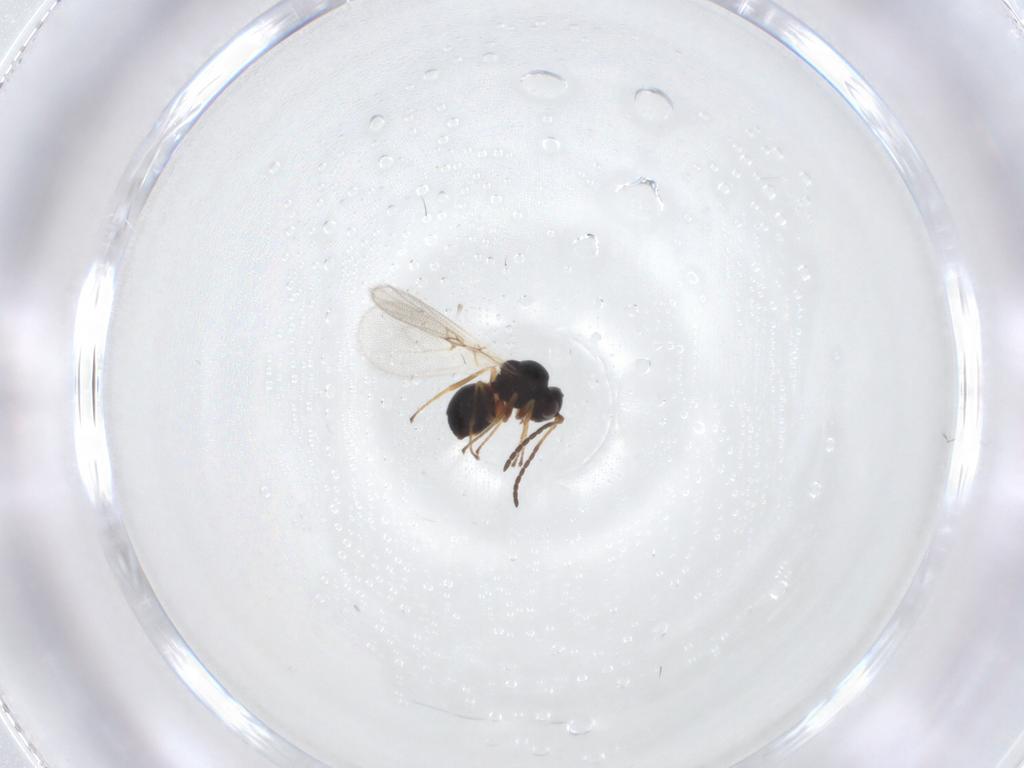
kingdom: Animalia
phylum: Arthropoda
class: Insecta
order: Hymenoptera
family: Figitidae
